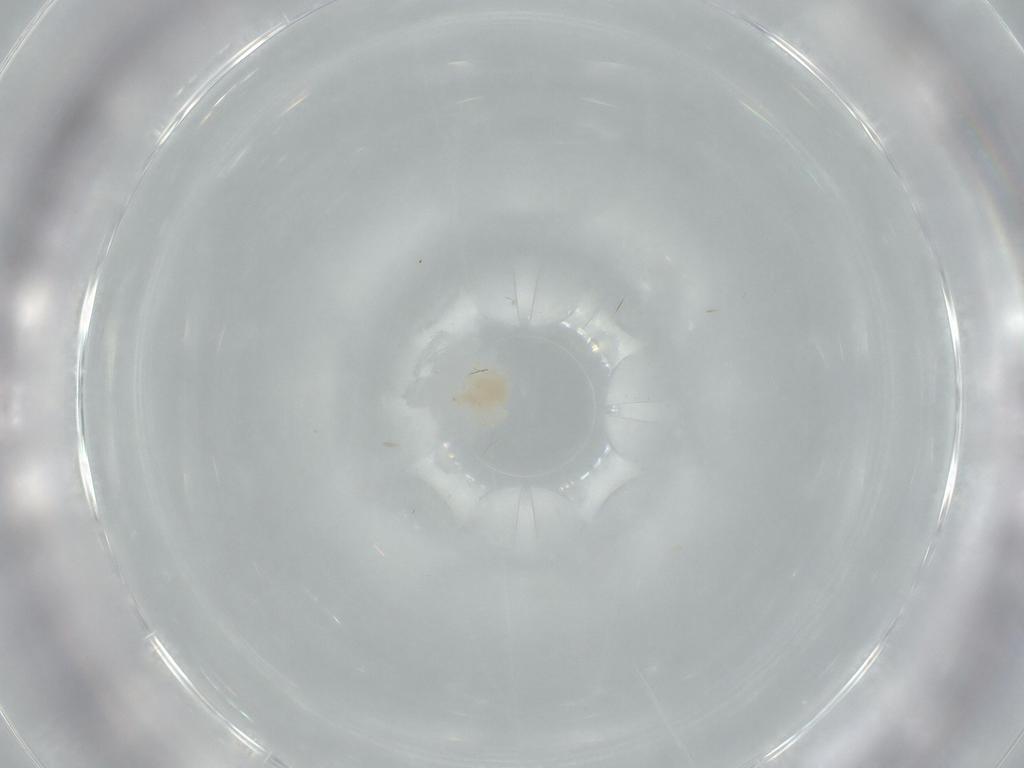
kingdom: Animalia
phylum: Arthropoda
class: Arachnida
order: Trombidiformes
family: Anystidae
